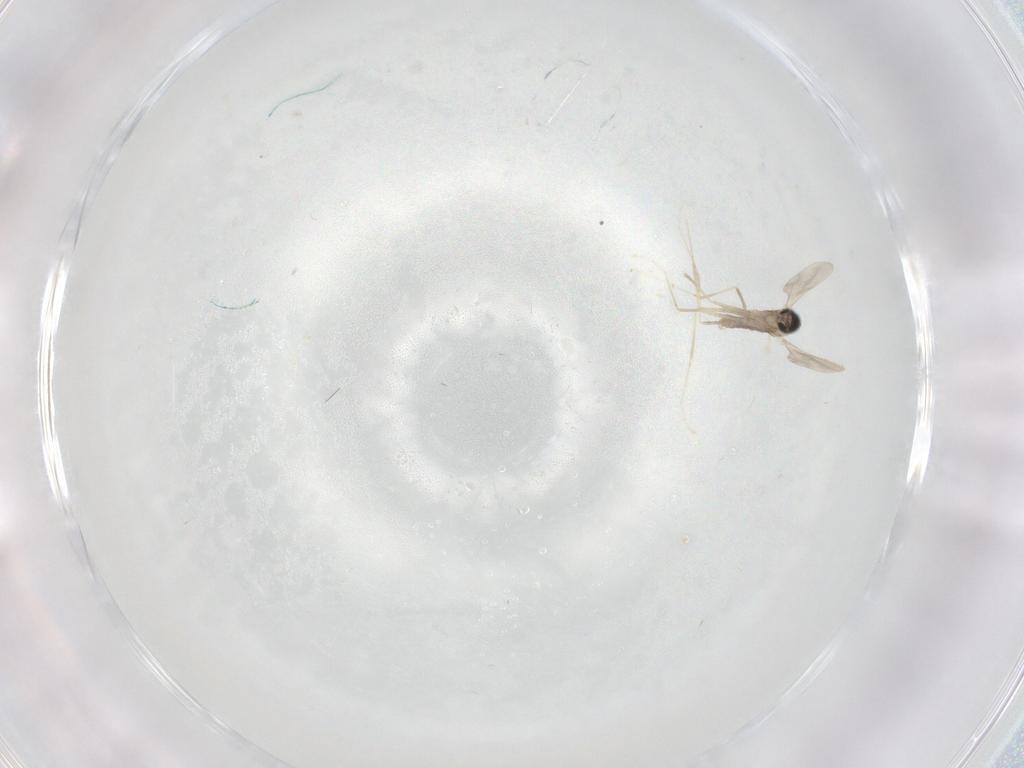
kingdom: Animalia
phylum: Arthropoda
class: Insecta
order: Diptera
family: Cecidomyiidae
